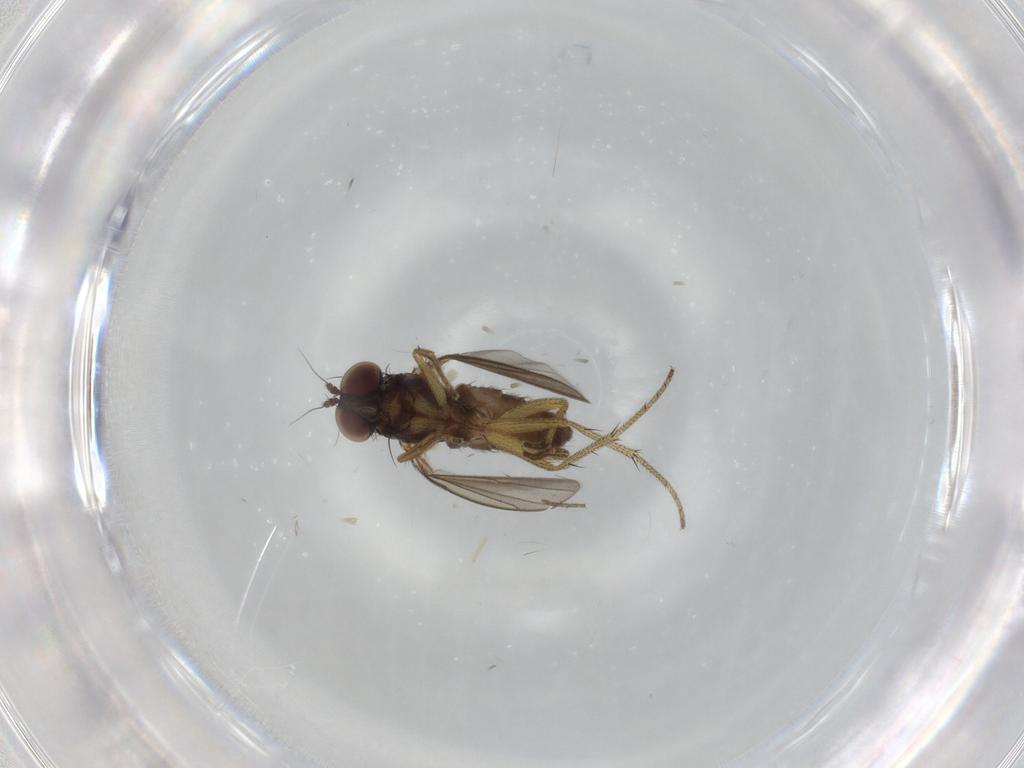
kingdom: Animalia
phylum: Arthropoda
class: Insecta
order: Diptera
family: Dolichopodidae
